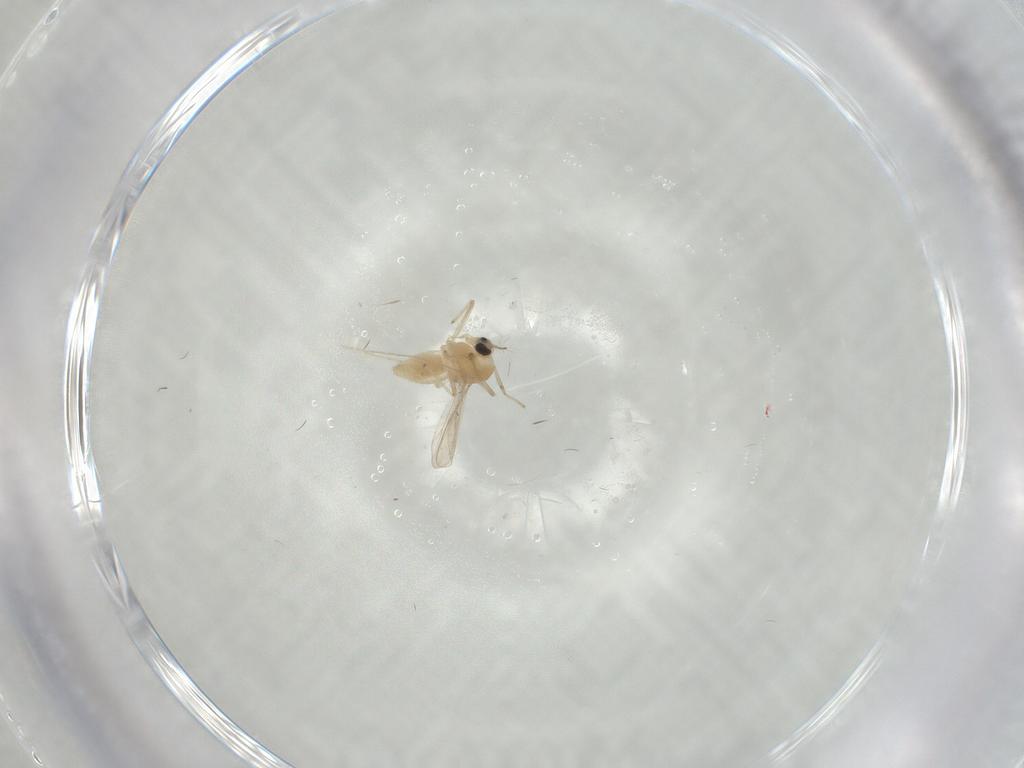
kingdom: Animalia
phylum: Arthropoda
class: Insecta
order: Diptera
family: Chironomidae
